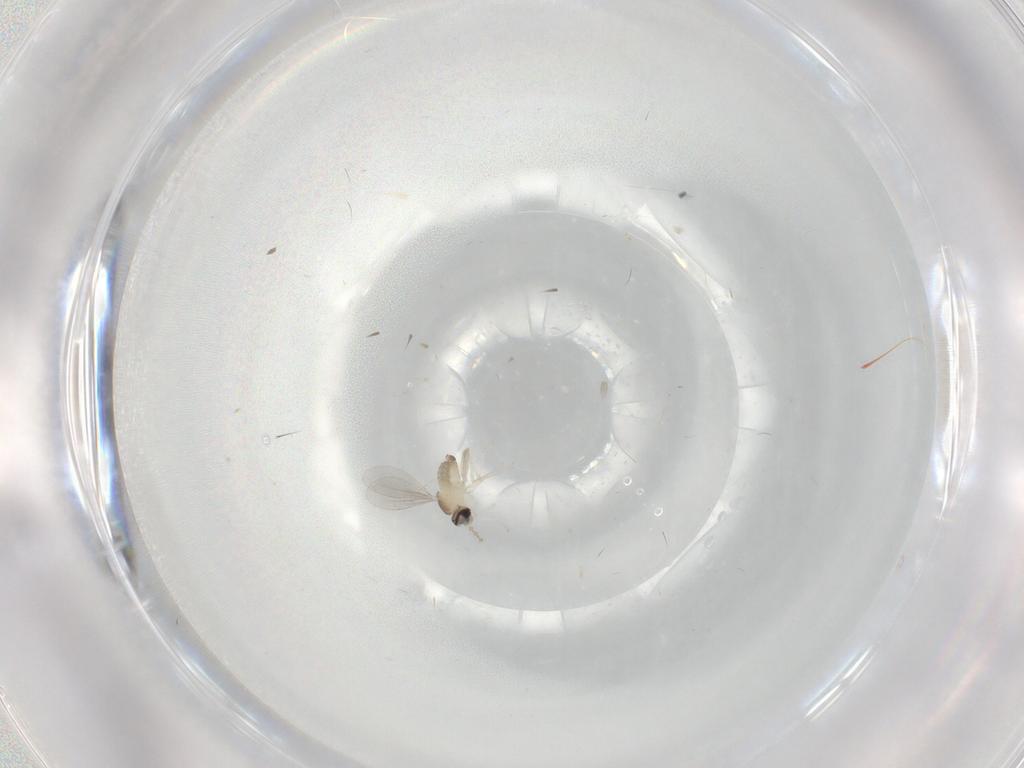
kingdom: Animalia
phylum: Arthropoda
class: Insecta
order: Diptera
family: Cecidomyiidae
